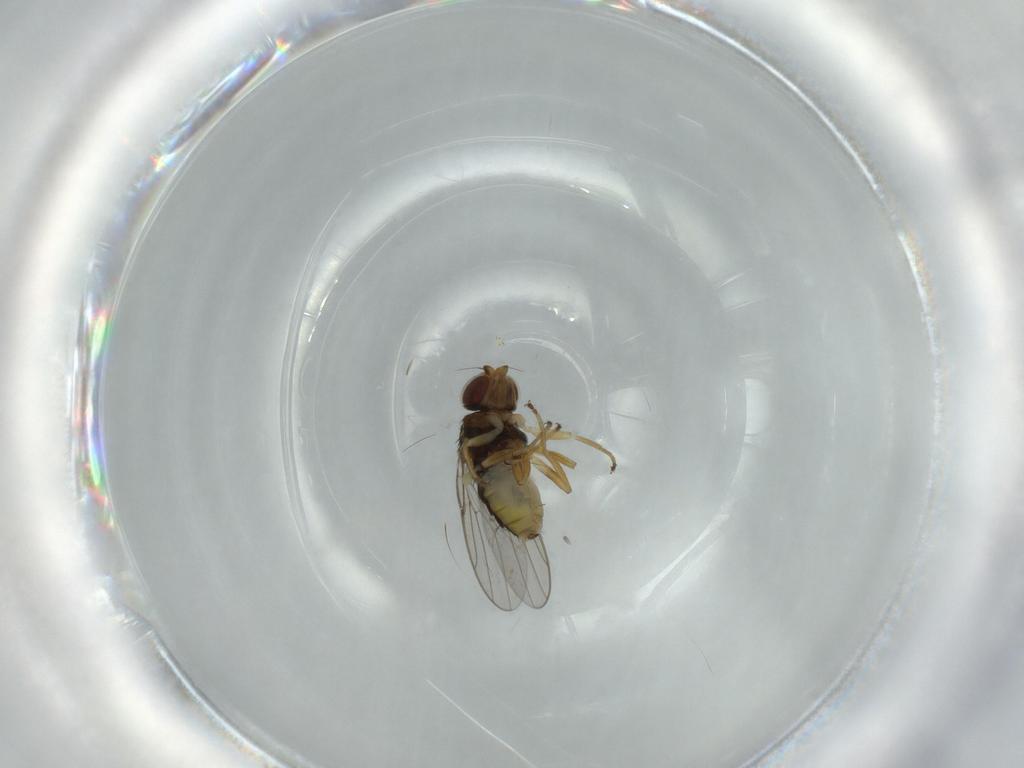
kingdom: Animalia
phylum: Arthropoda
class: Insecta
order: Diptera
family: Chloropidae
